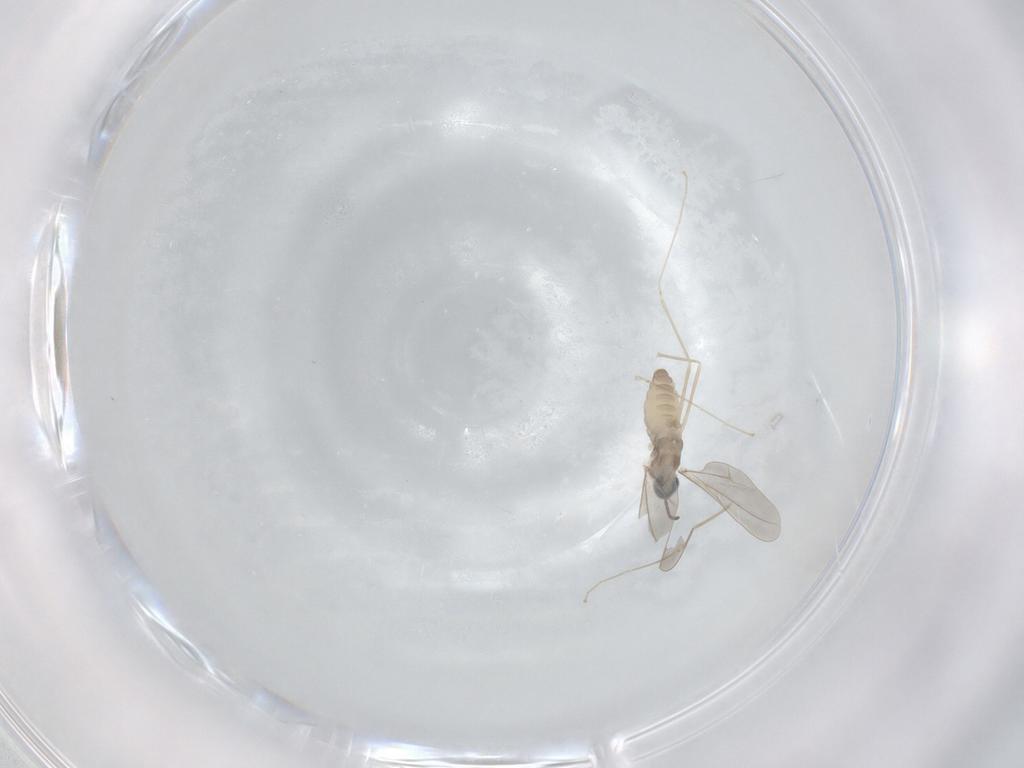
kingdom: Animalia
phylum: Arthropoda
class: Insecta
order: Diptera
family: Cecidomyiidae
